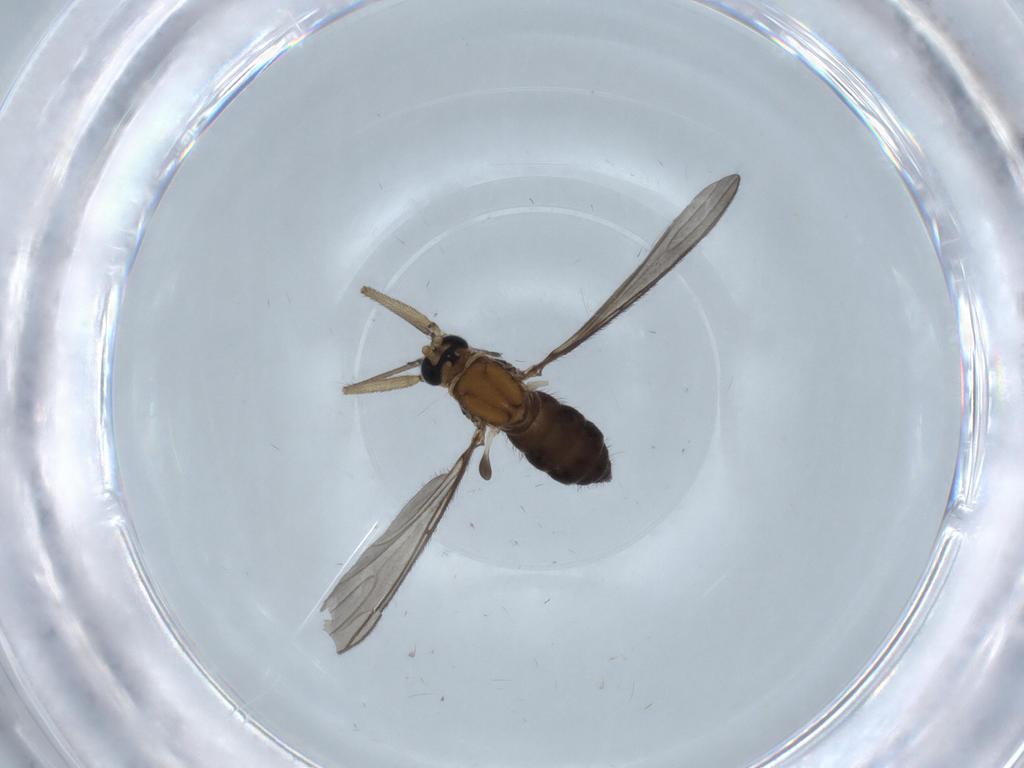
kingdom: Animalia
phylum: Arthropoda
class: Insecta
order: Diptera
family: Sciaridae
